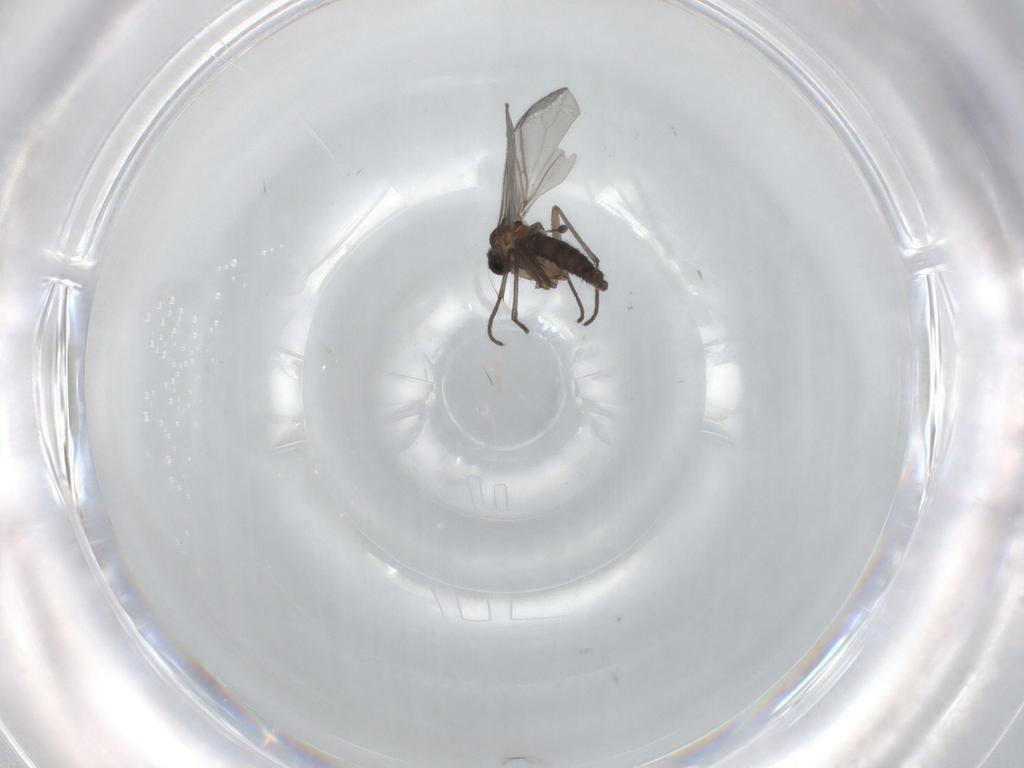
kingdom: Animalia
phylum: Arthropoda
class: Insecta
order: Diptera
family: Sciaridae
